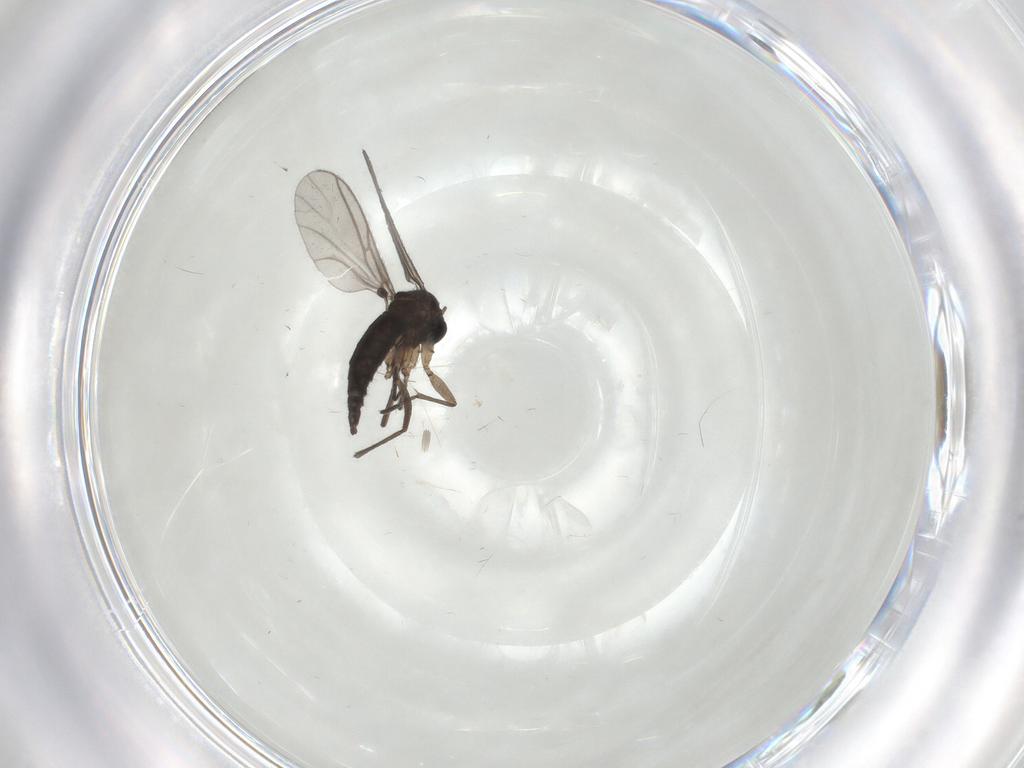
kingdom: Animalia
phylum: Arthropoda
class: Insecta
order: Diptera
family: Sciaridae
